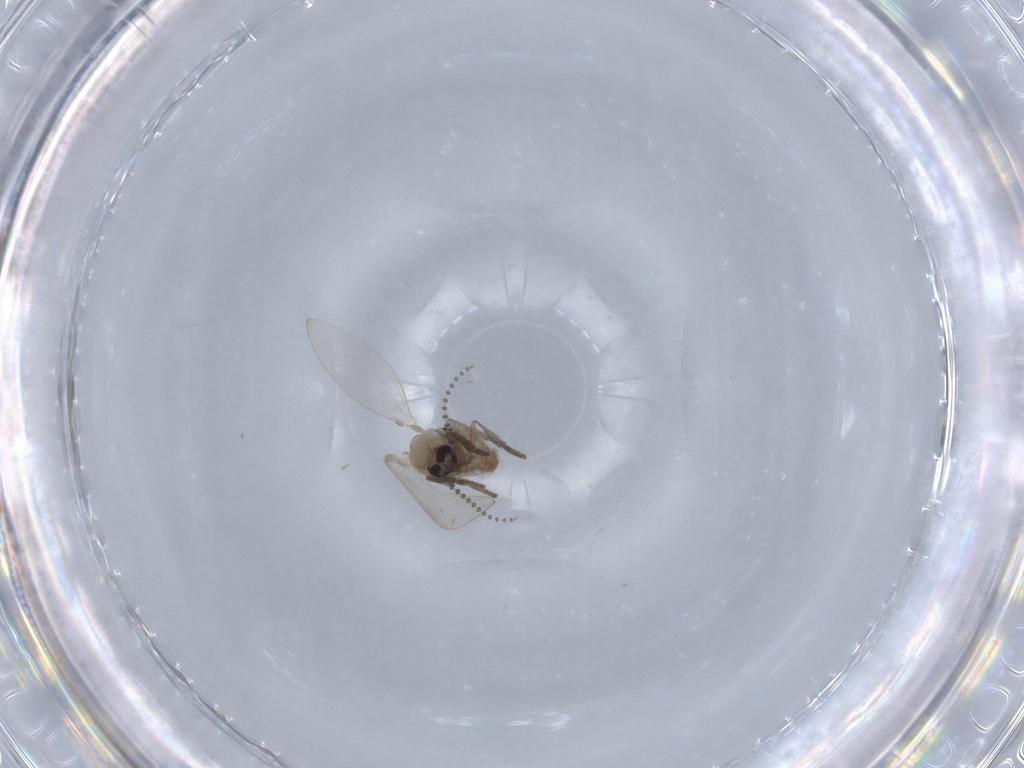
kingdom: Animalia
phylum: Arthropoda
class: Insecta
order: Diptera
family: Psychodidae
